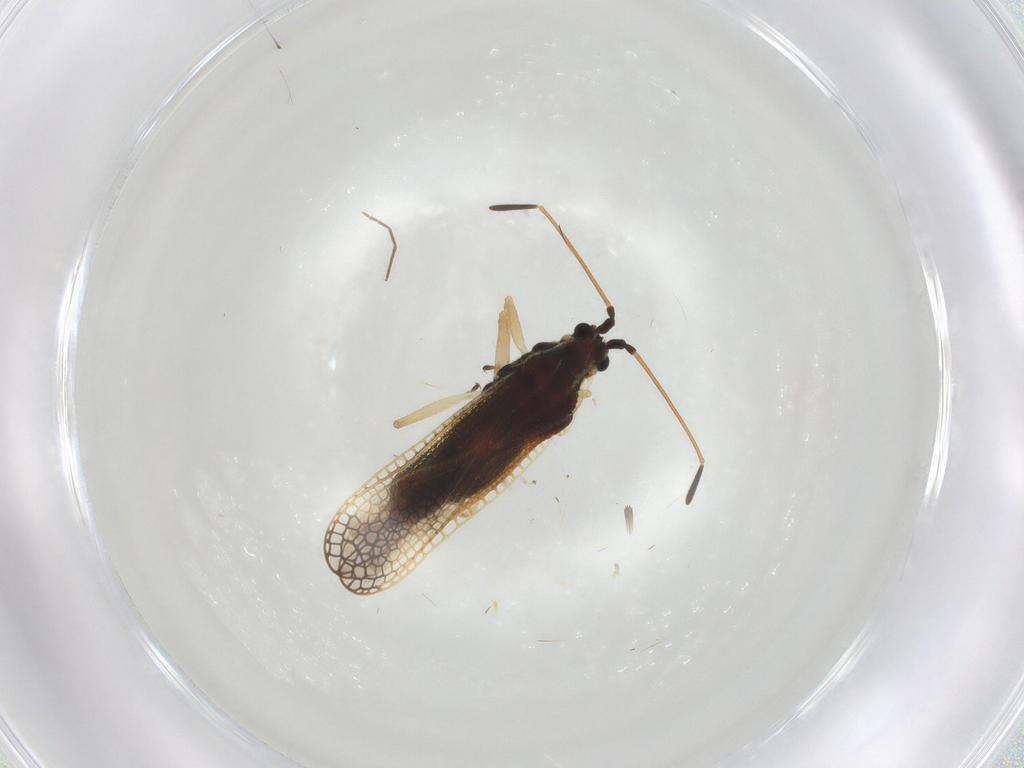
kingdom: Animalia
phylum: Arthropoda
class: Insecta
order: Hemiptera
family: Tingidae
